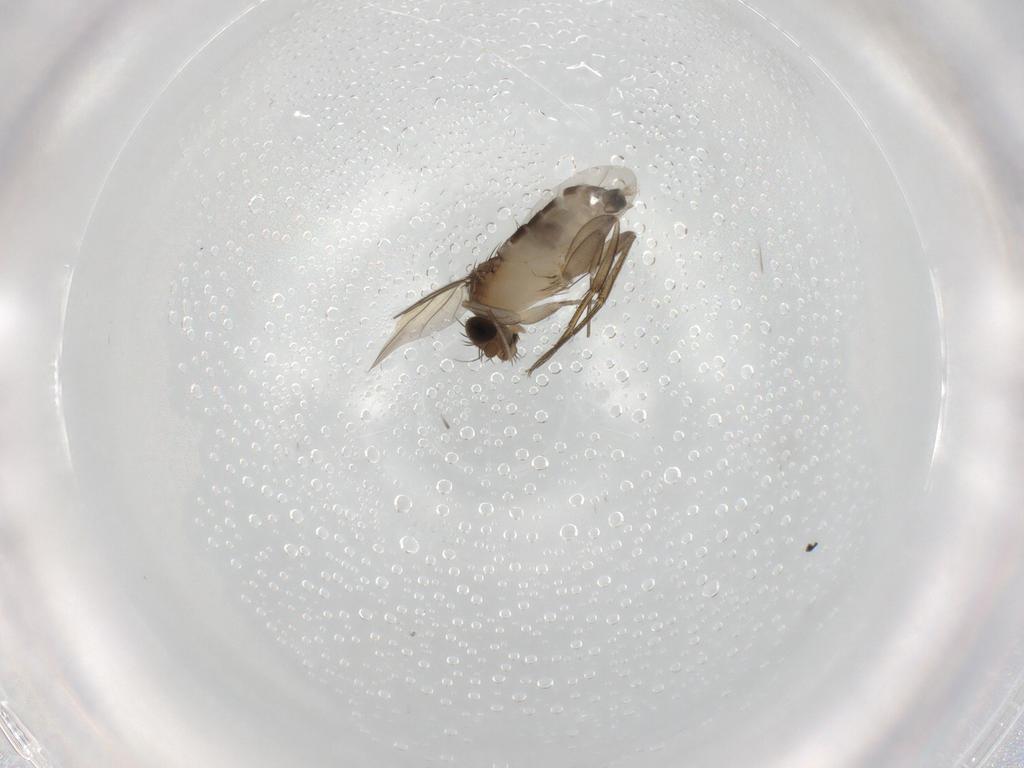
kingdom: Animalia
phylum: Arthropoda
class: Insecta
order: Diptera
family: Phoridae
